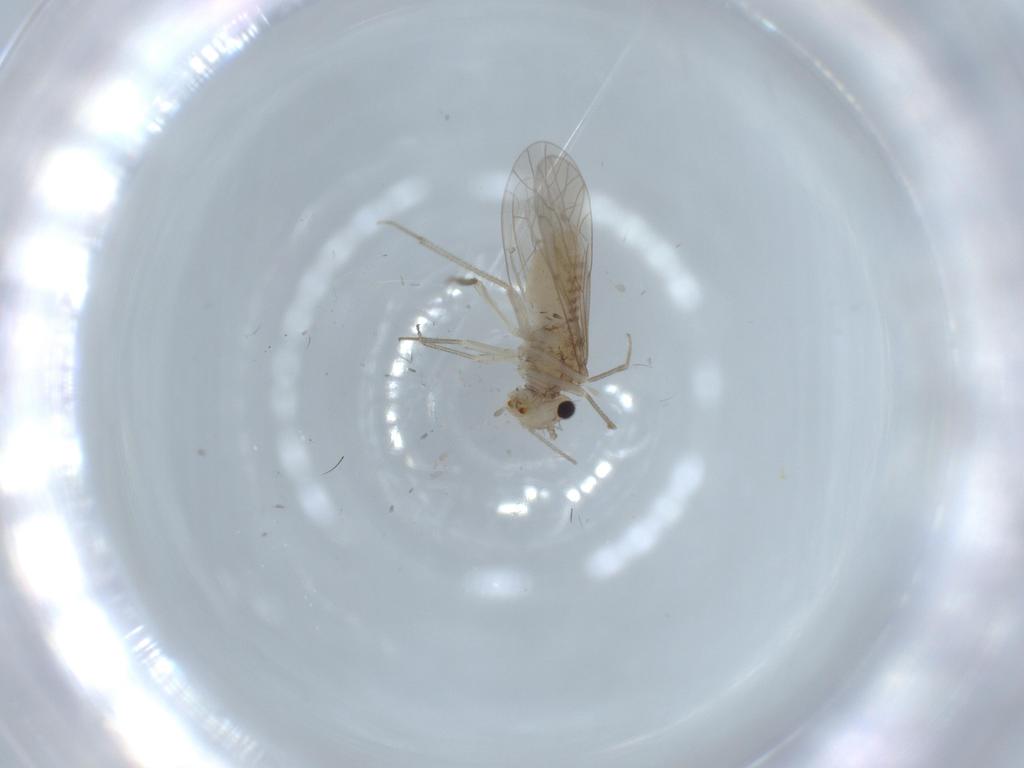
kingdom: Animalia
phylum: Arthropoda
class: Insecta
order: Psocodea
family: Caeciliusidae
